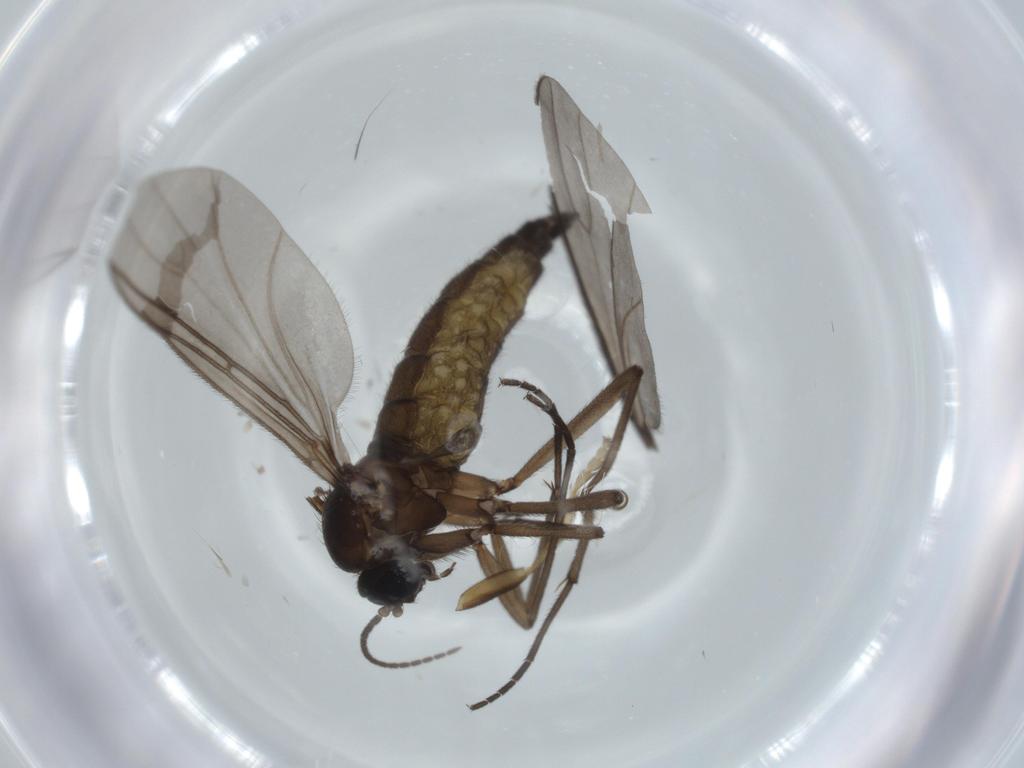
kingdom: Animalia
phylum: Arthropoda
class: Insecta
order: Diptera
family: Sciaridae
